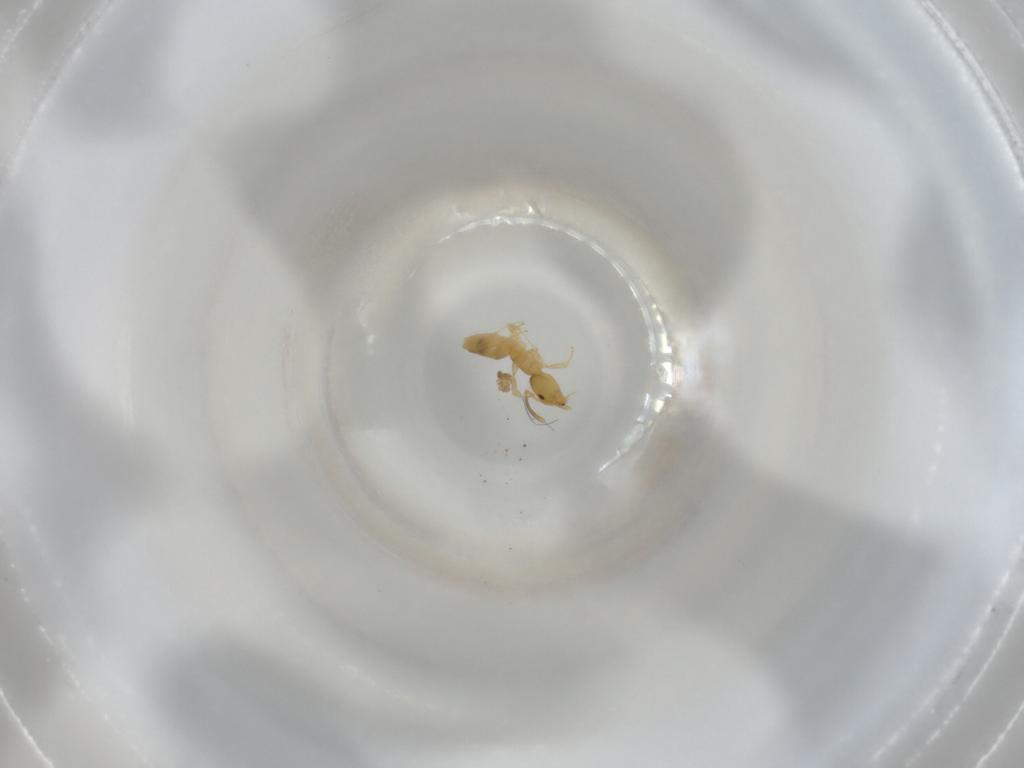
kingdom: Animalia
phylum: Arthropoda
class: Insecta
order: Hymenoptera
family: Formicidae
